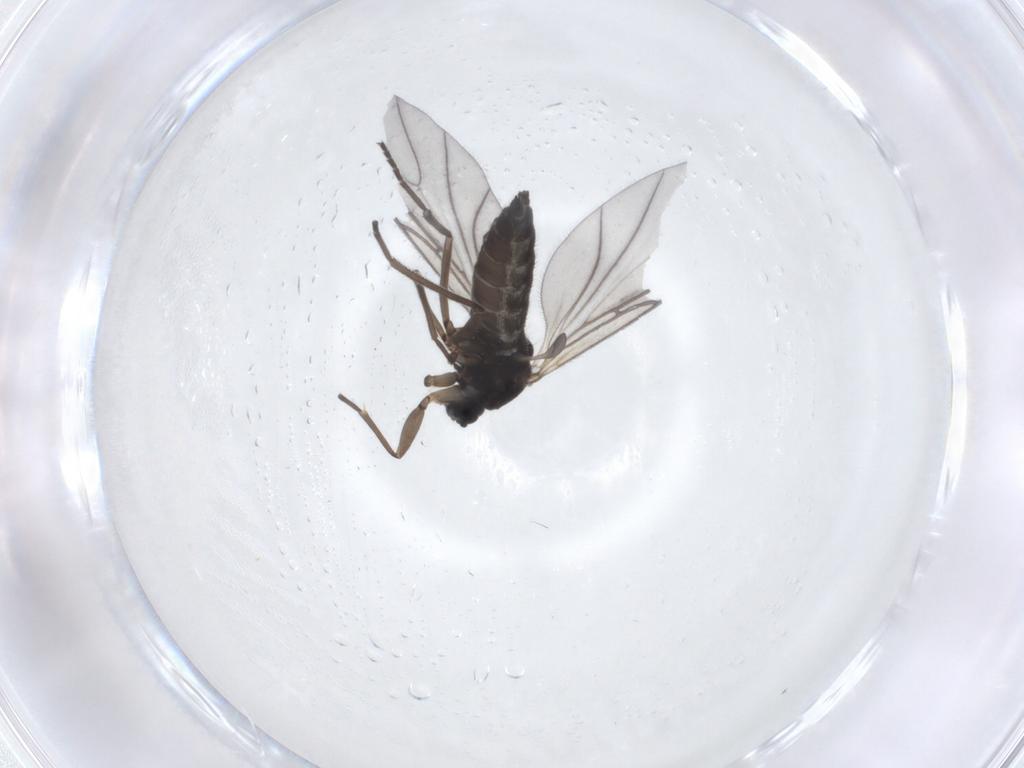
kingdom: Animalia
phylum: Arthropoda
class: Insecta
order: Diptera
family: Sciaridae
